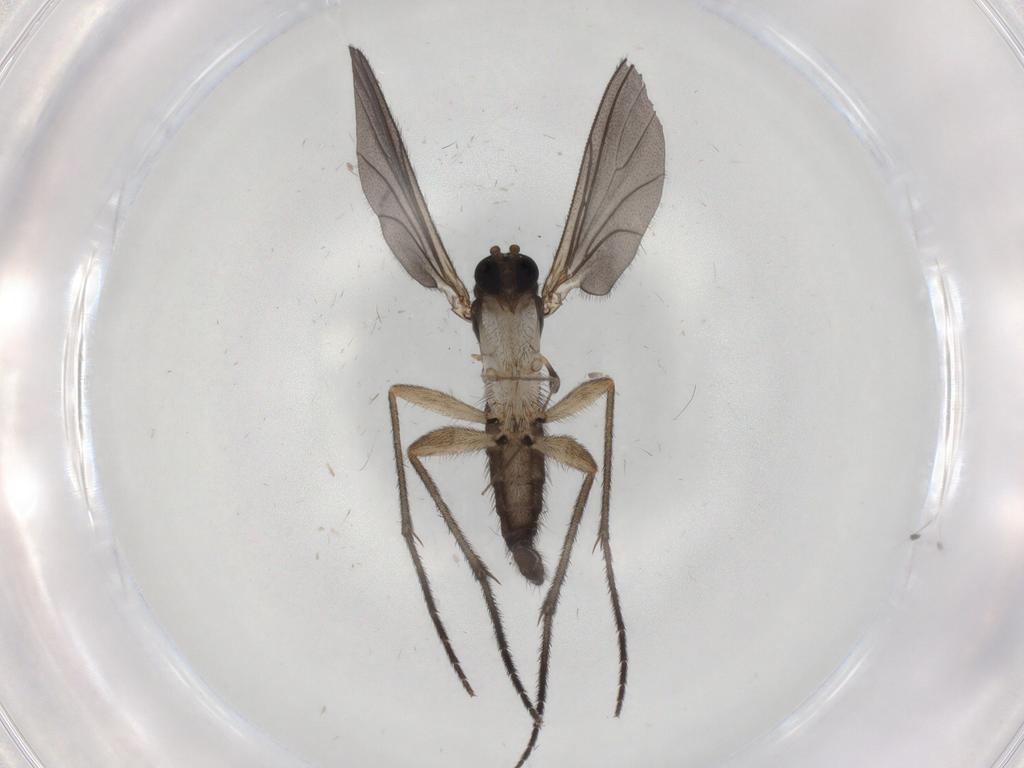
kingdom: Animalia
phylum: Arthropoda
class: Insecta
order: Diptera
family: Sciaridae
